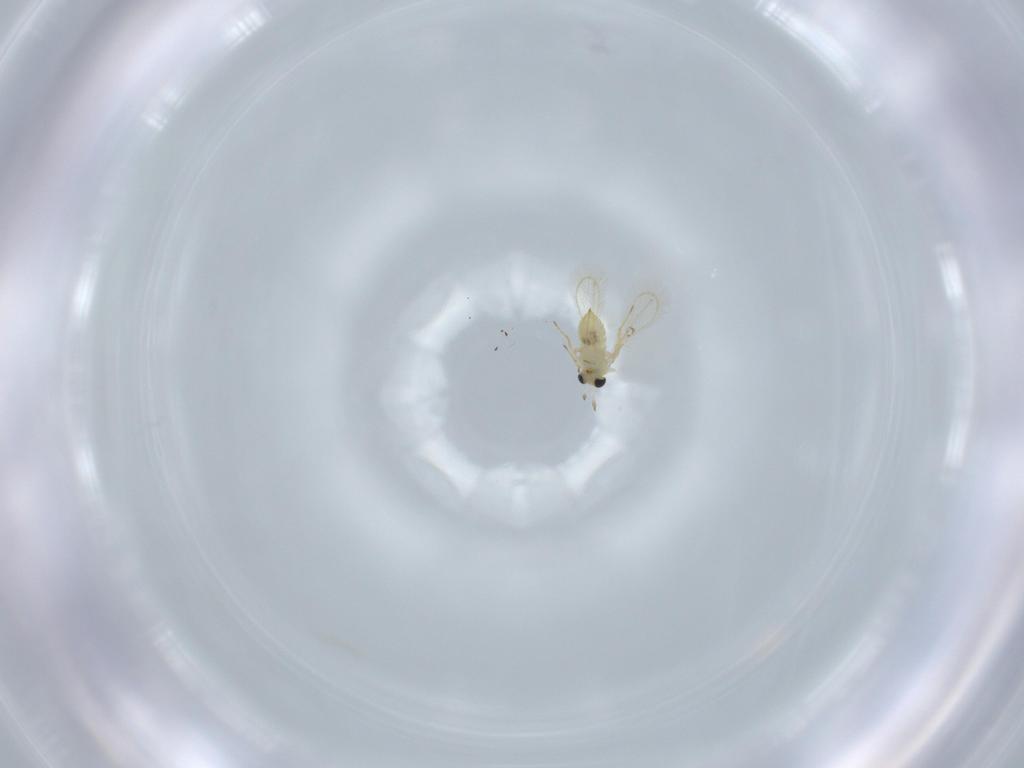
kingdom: Animalia
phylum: Arthropoda
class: Insecta
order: Hymenoptera
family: Trichogrammatidae
